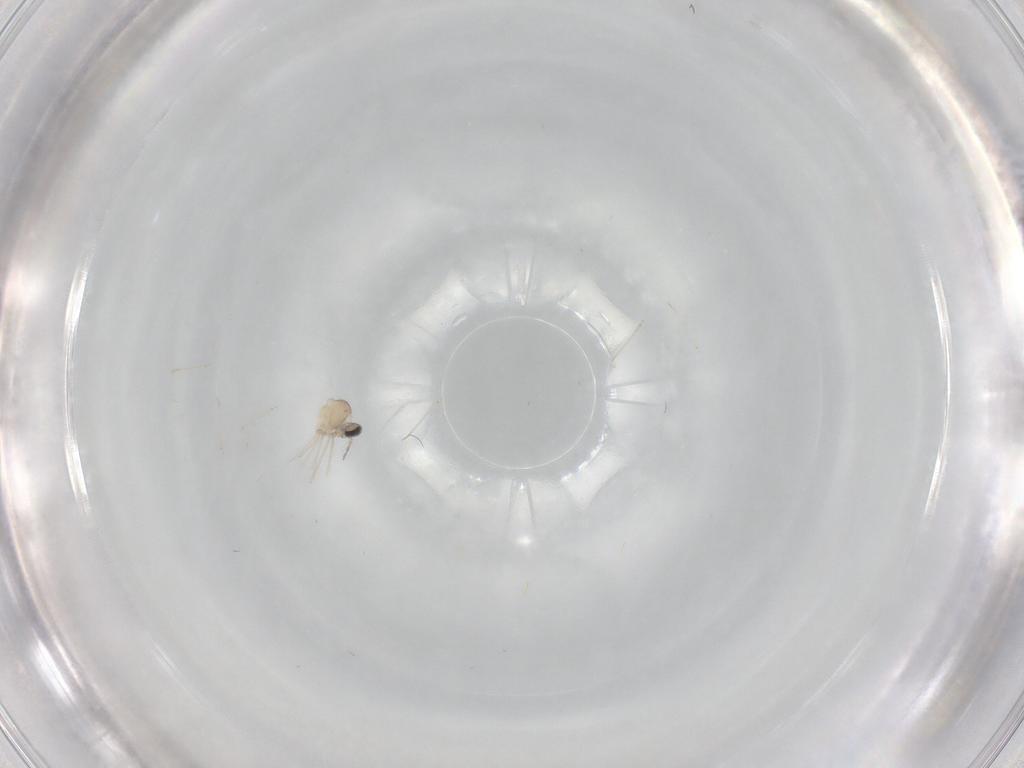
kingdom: Animalia
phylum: Arthropoda
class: Insecta
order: Diptera
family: Cecidomyiidae
